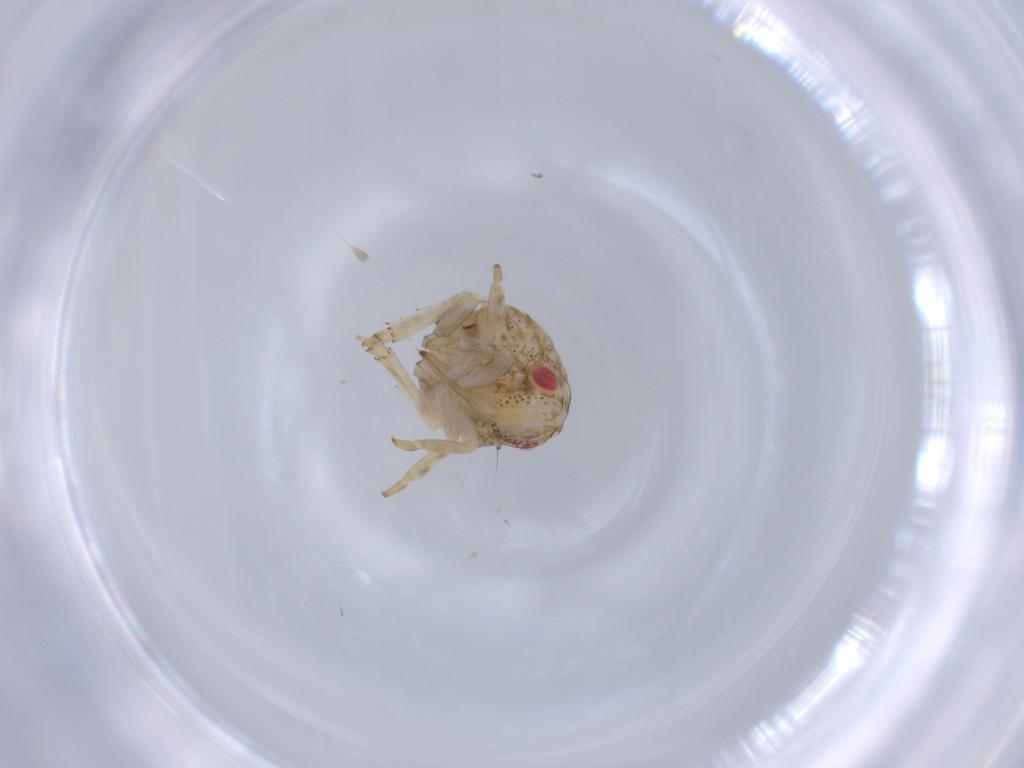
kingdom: Animalia
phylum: Arthropoda
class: Insecta
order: Hemiptera
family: Acanaloniidae
